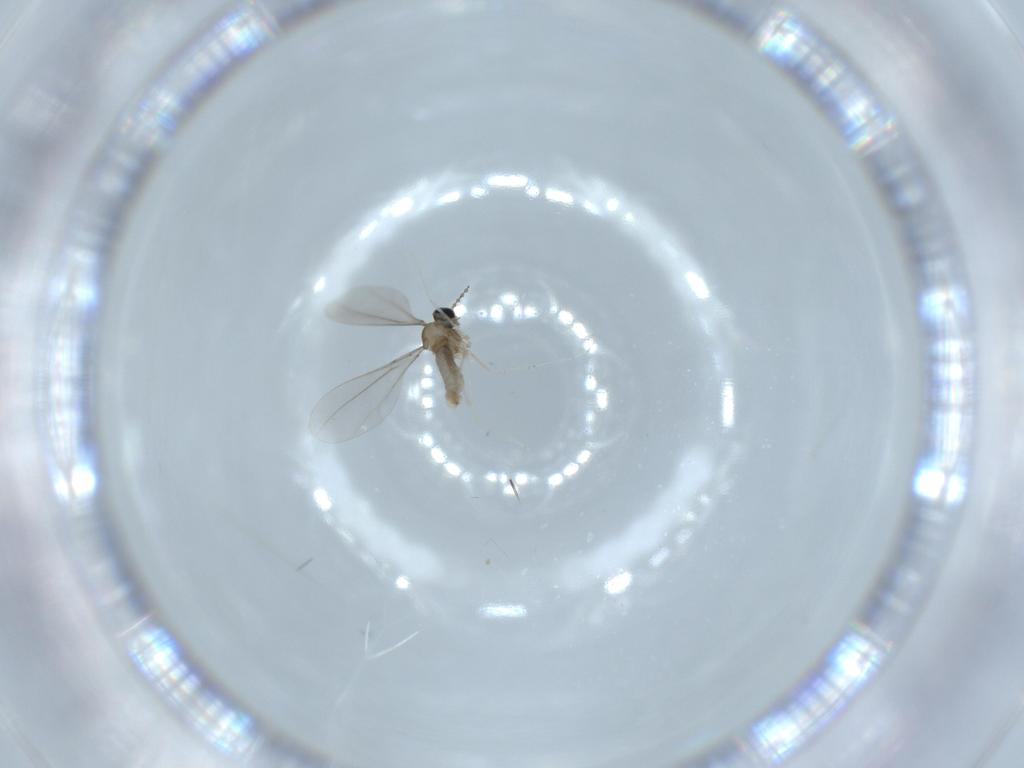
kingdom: Animalia
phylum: Arthropoda
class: Insecta
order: Diptera
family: Cecidomyiidae
